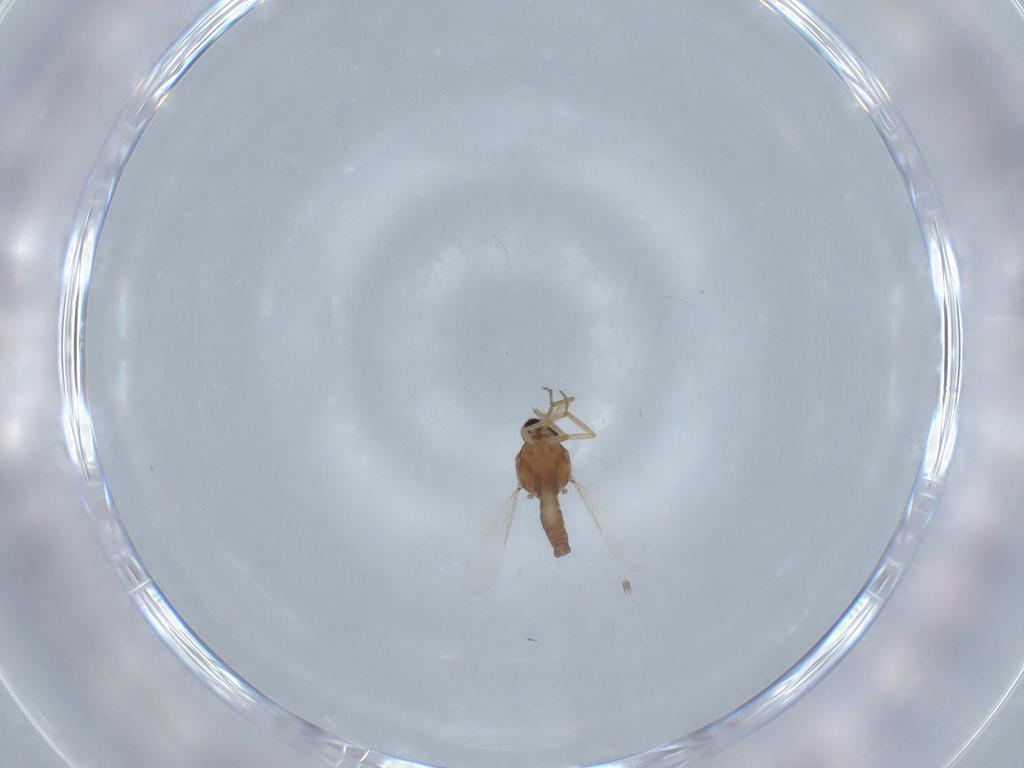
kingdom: Animalia
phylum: Arthropoda
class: Insecta
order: Diptera
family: Ceratopogonidae
